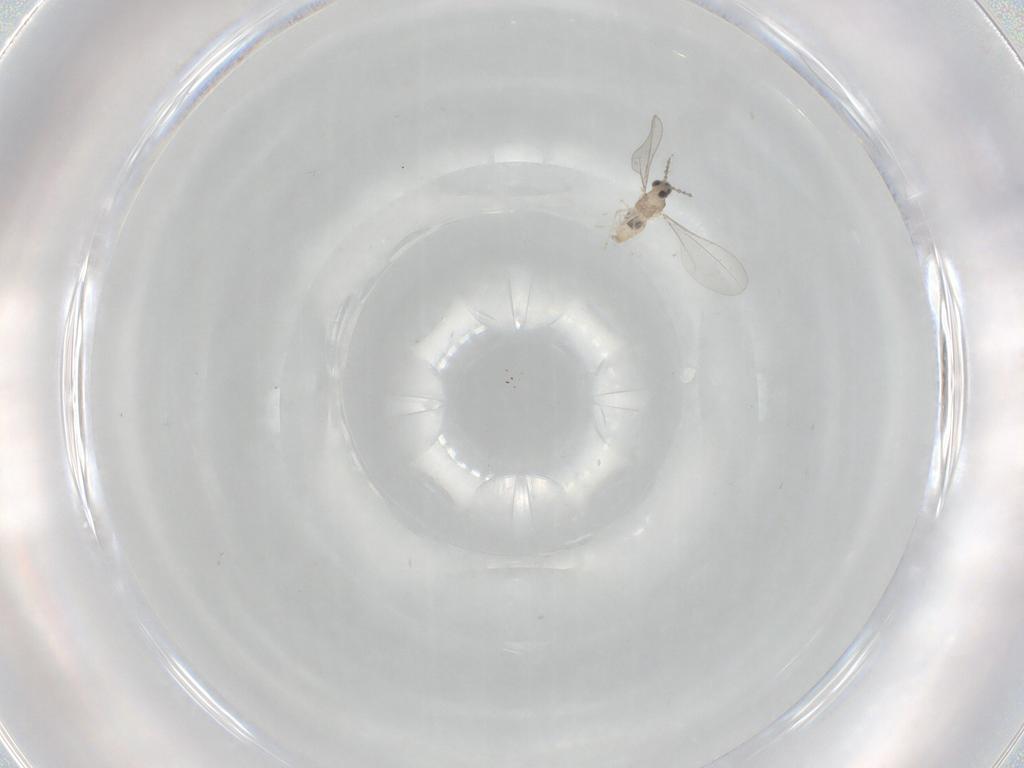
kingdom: Animalia
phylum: Arthropoda
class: Insecta
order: Diptera
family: Cecidomyiidae
